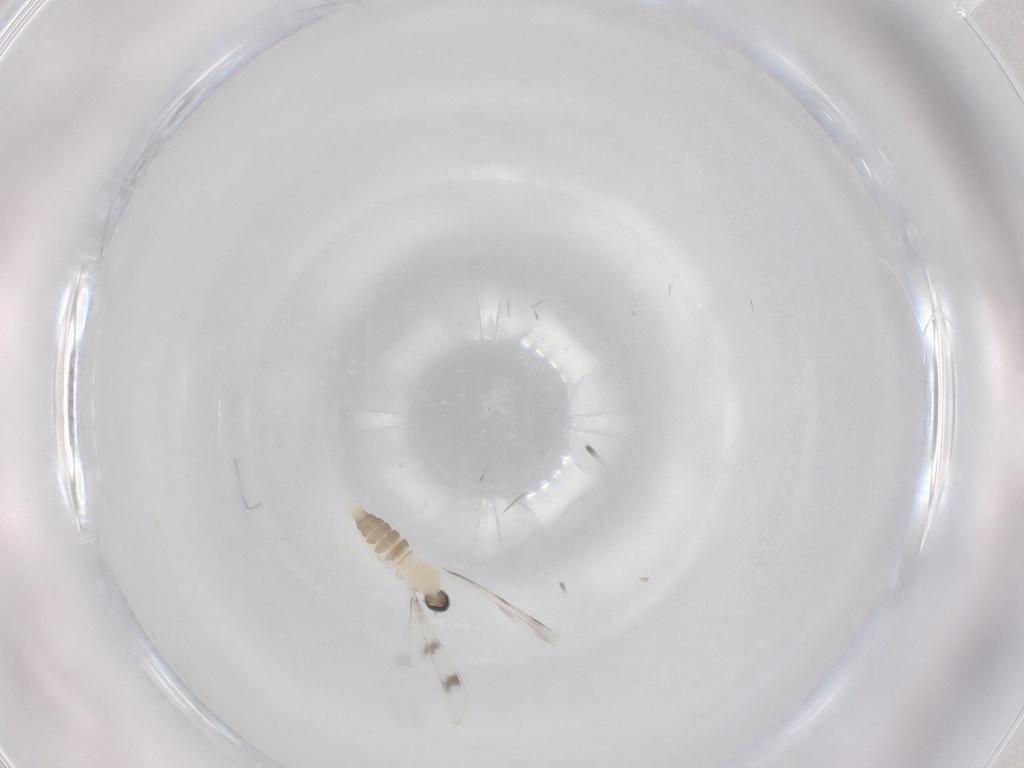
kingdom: Animalia
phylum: Arthropoda
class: Insecta
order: Diptera
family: Cecidomyiidae
